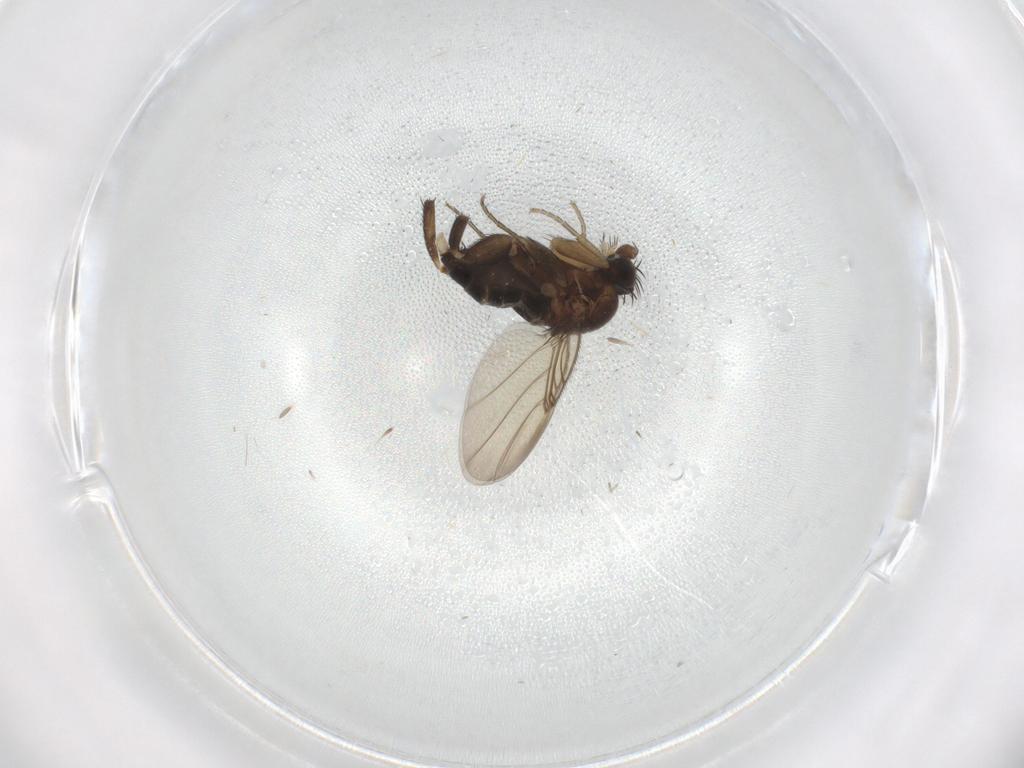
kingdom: Animalia
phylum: Arthropoda
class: Insecta
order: Diptera
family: Phoridae
